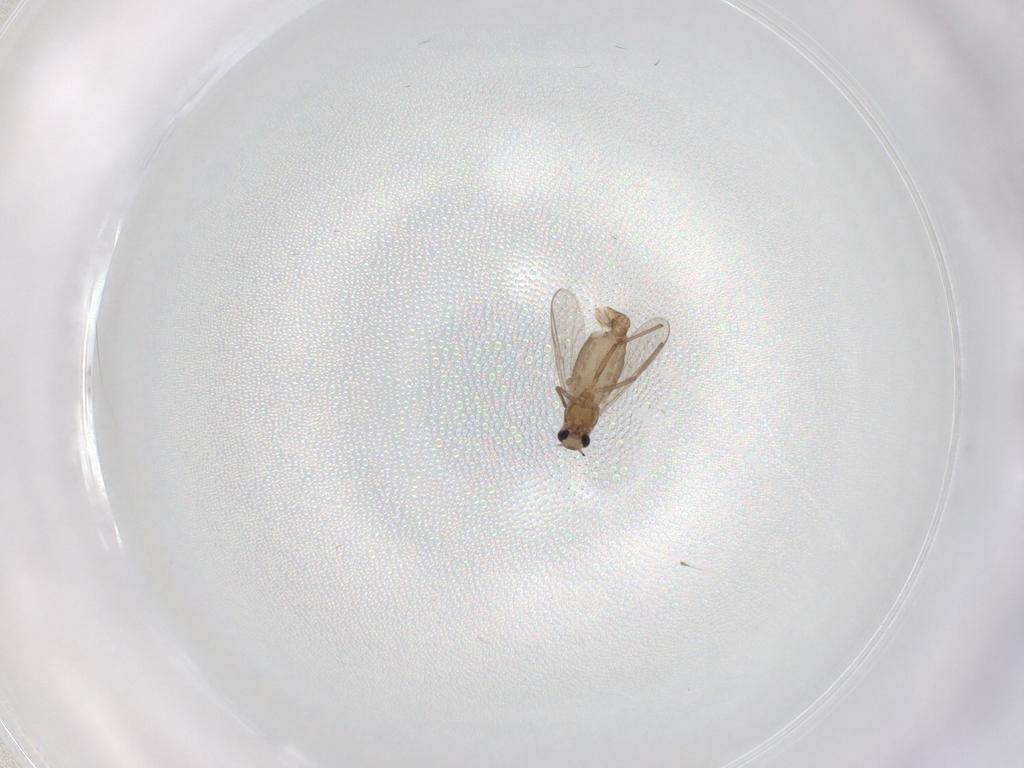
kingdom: Animalia
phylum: Arthropoda
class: Insecta
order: Diptera
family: Chironomidae
